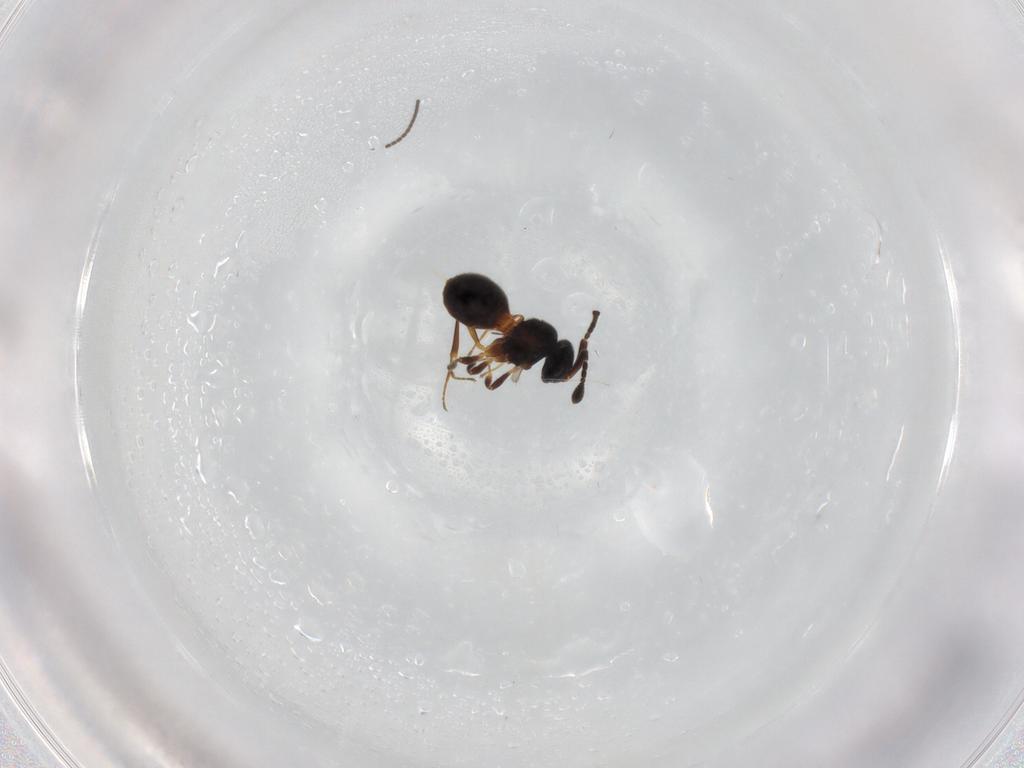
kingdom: Animalia
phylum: Arthropoda
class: Insecta
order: Hymenoptera
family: Scelionidae
